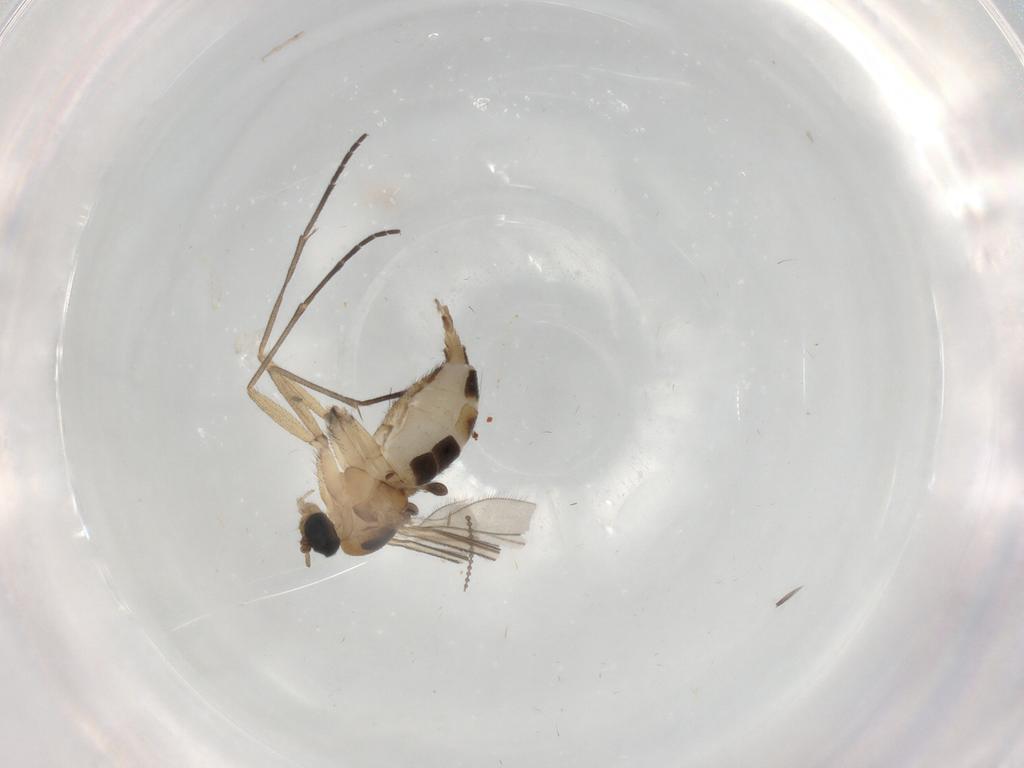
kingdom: Animalia
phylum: Arthropoda
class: Insecta
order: Diptera
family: Cecidomyiidae
